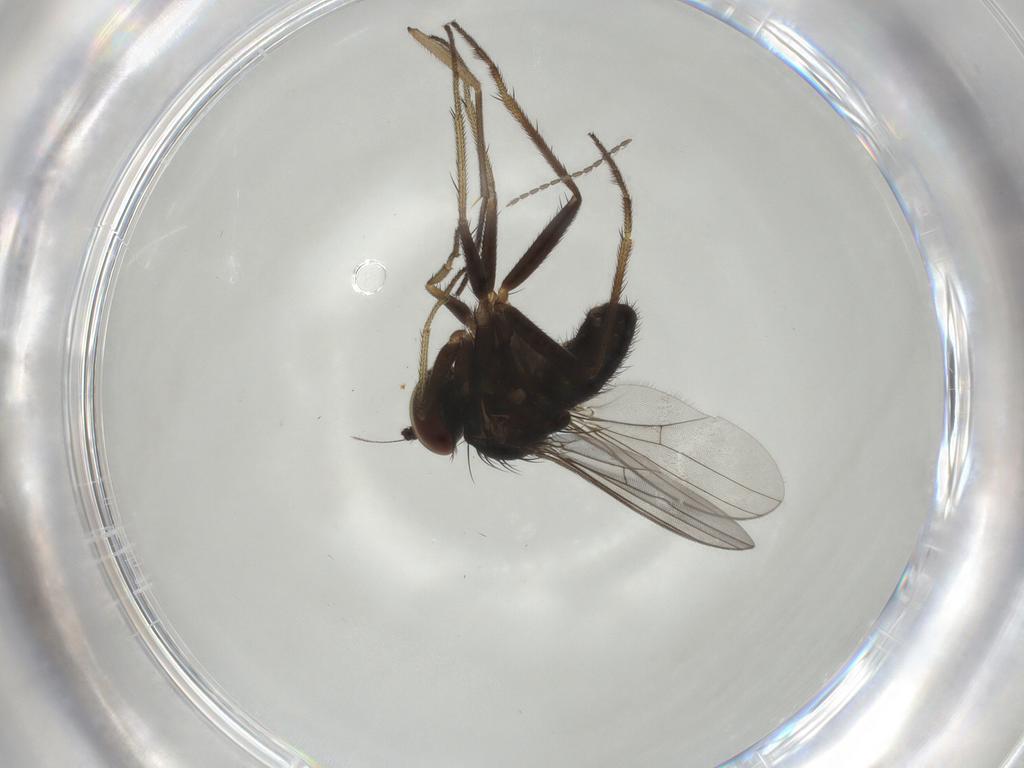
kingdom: Animalia
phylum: Arthropoda
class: Insecta
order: Diptera
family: Dolichopodidae
